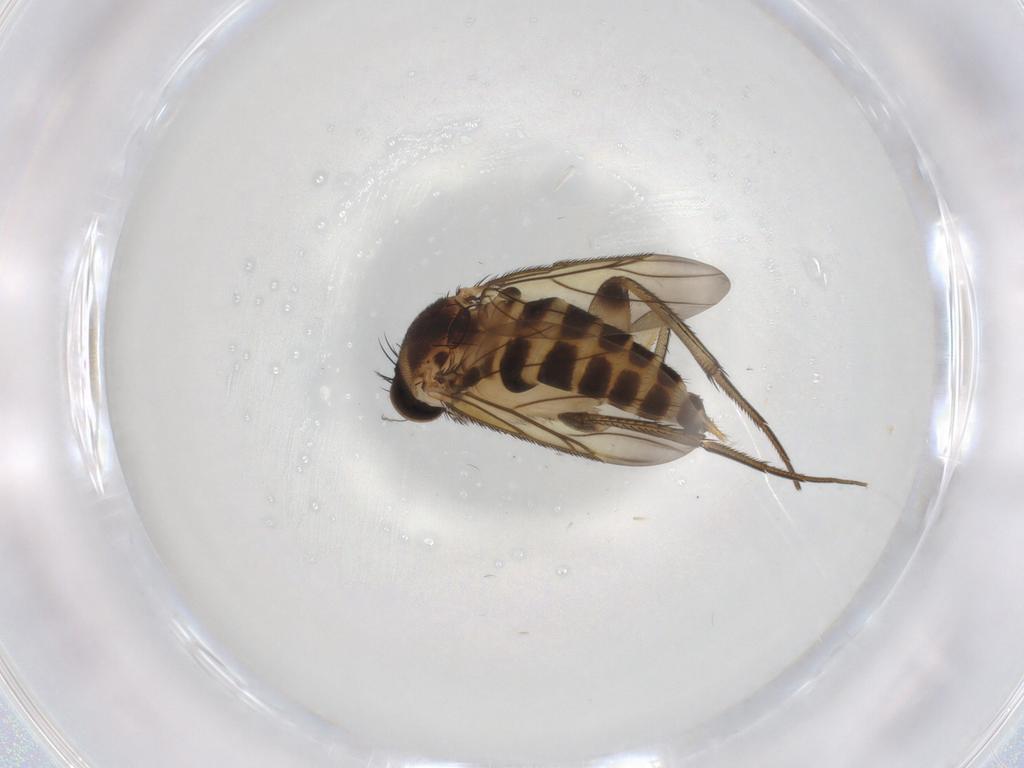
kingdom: Animalia
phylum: Arthropoda
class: Insecta
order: Diptera
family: Phoridae
